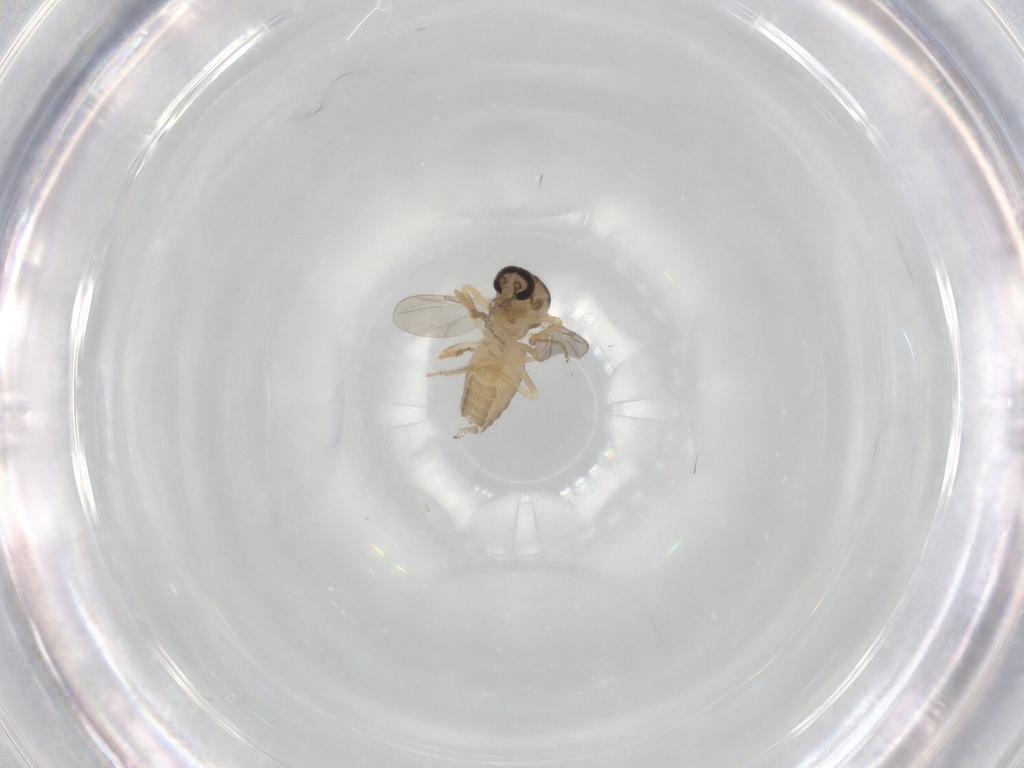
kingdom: Animalia
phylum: Arthropoda
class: Insecta
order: Diptera
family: Ceratopogonidae
